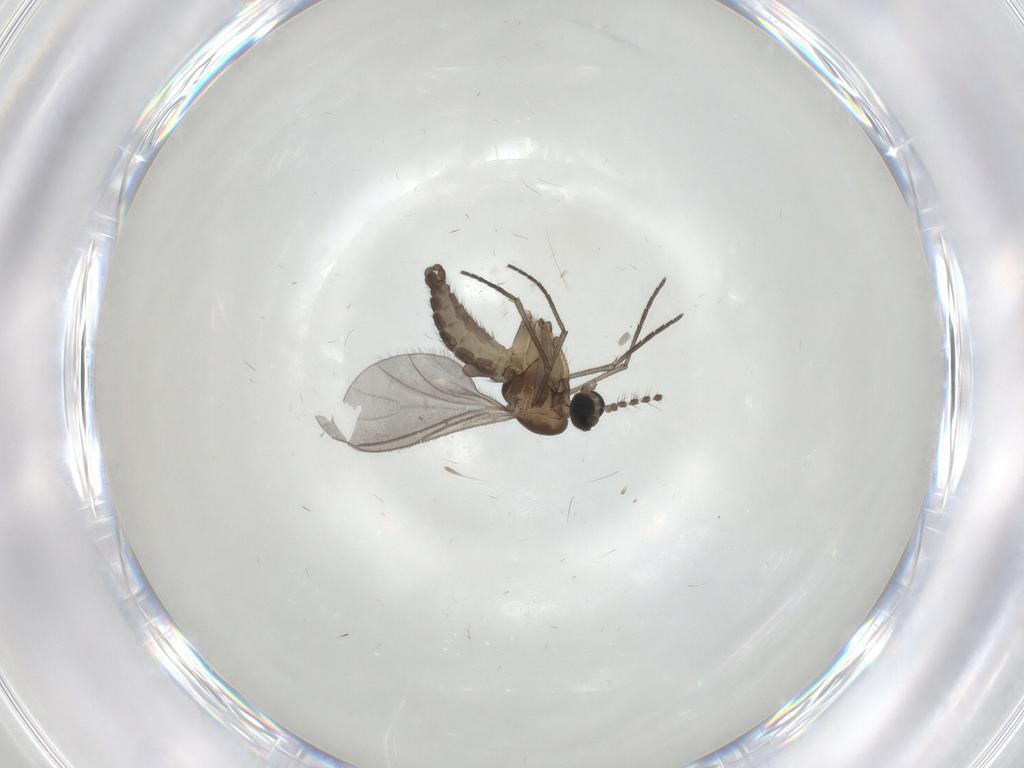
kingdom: Animalia
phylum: Arthropoda
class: Insecta
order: Diptera
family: Sciaridae
